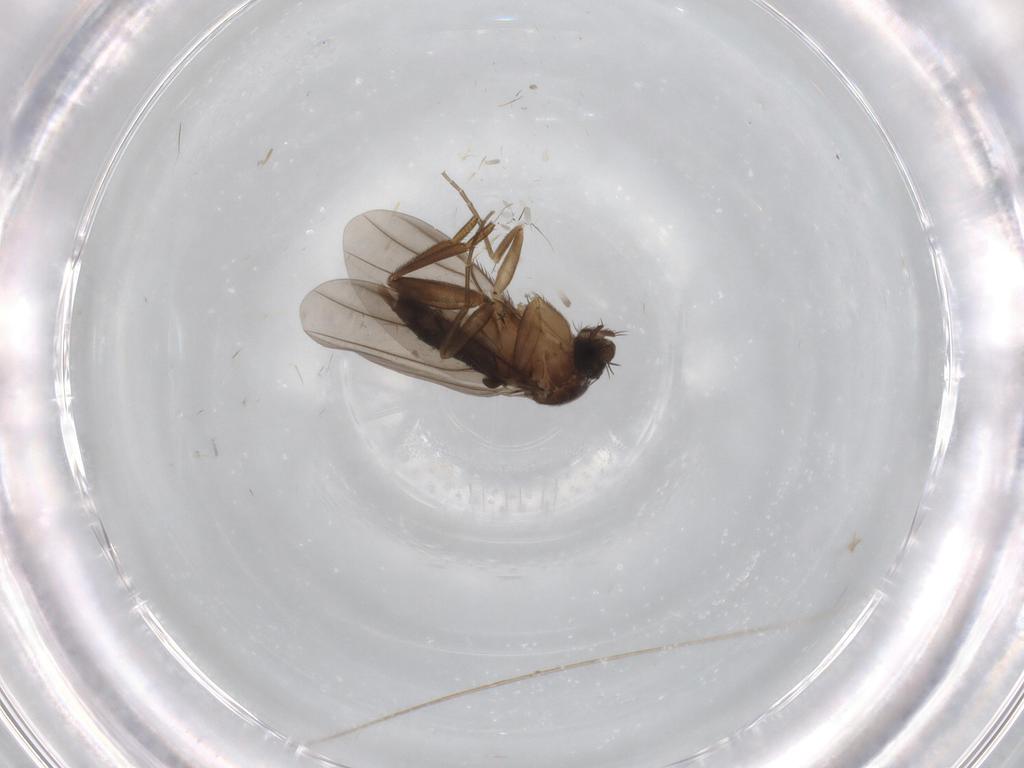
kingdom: Animalia
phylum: Arthropoda
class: Insecta
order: Diptera
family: Phoridae
